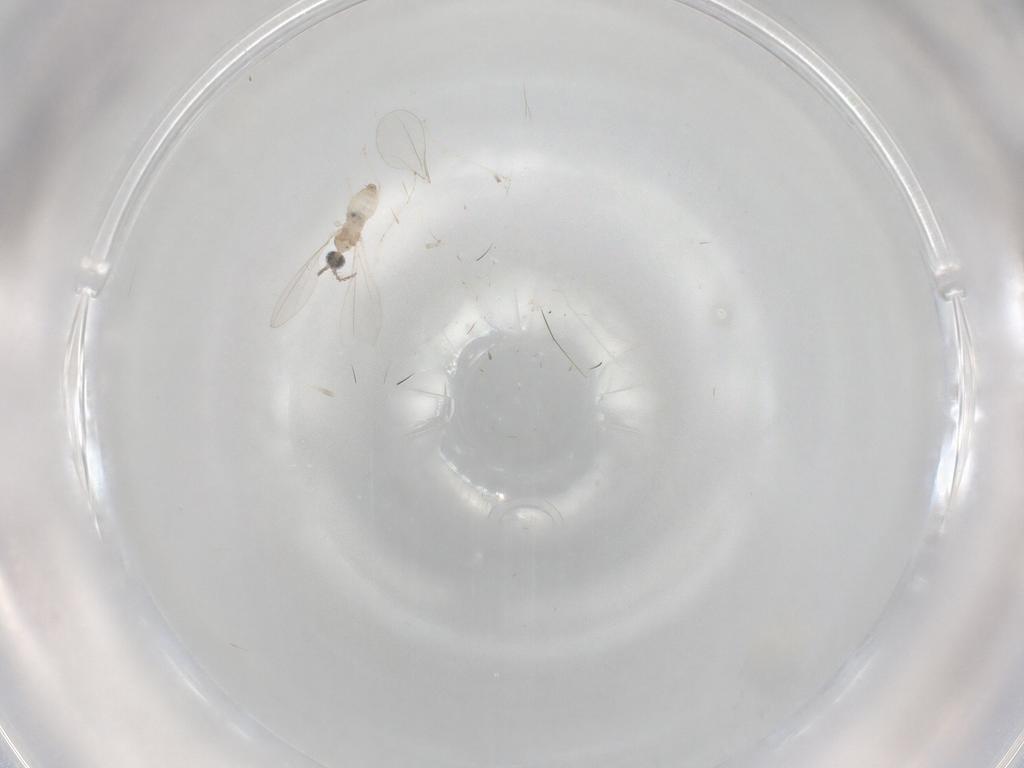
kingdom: Animalia
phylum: Arthropoda
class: Insecta
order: Diptera
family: Cecidomyiidae
